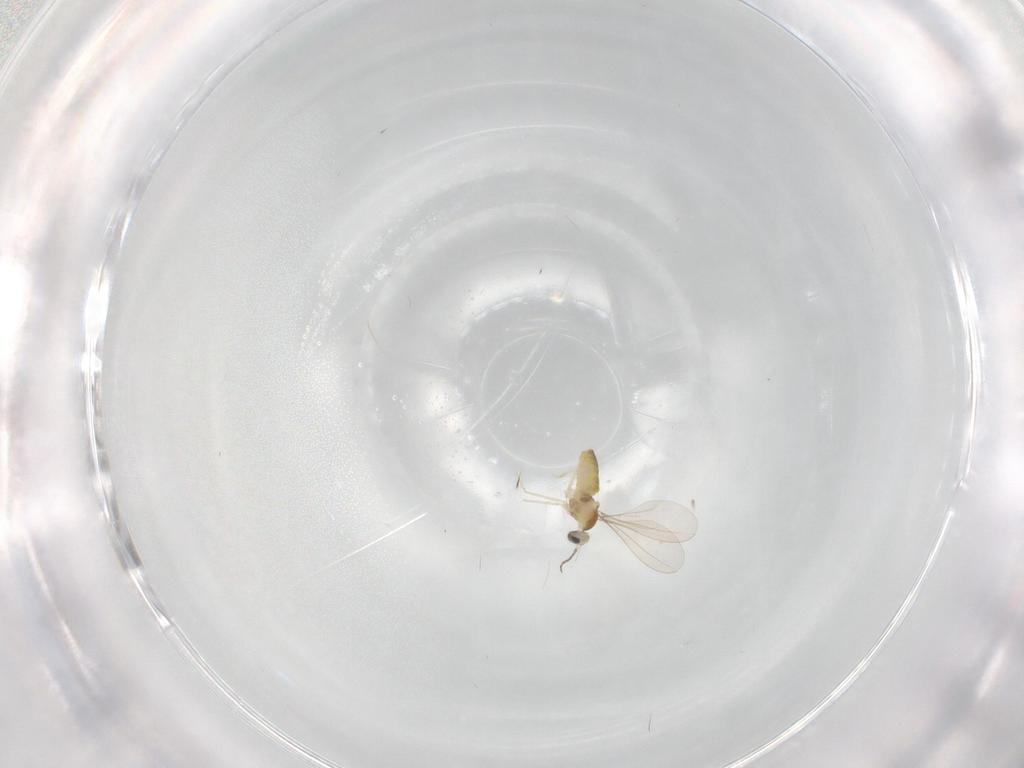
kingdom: Animalia
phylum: Arthropoda
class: Insecta
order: Diptera
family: Cecidomyiidae
